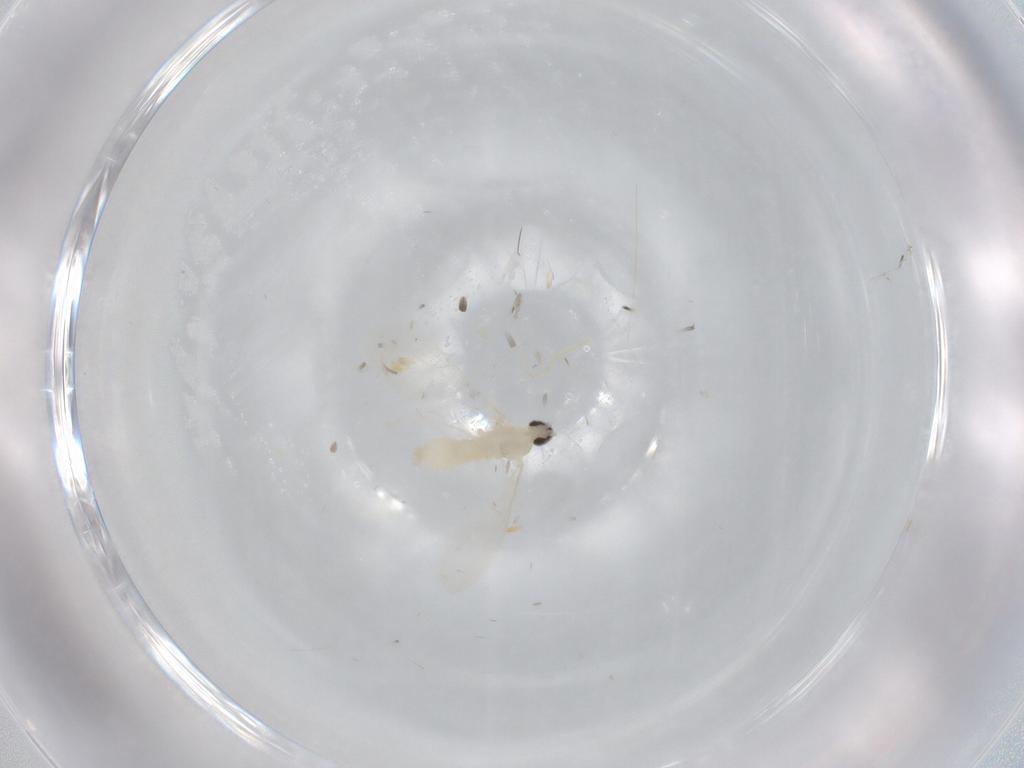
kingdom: Animalia
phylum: Arthropoda
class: Insecta
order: Diptera
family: Cecidomyiidae
